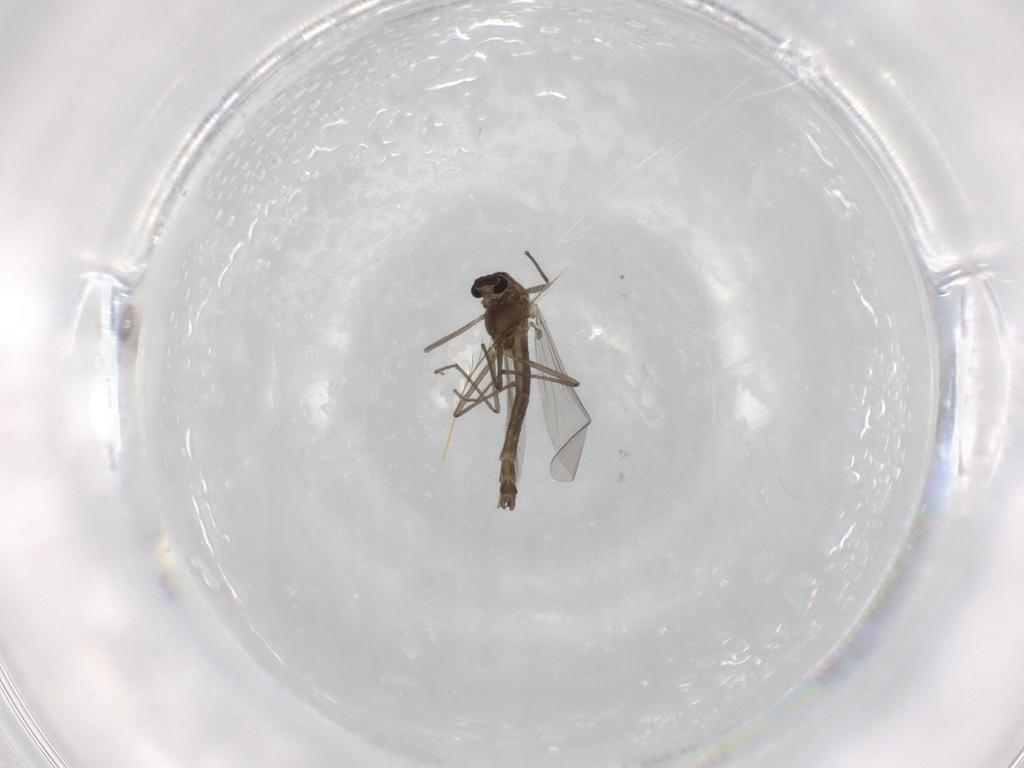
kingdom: Animalia
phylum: Arthropoda
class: Insecta
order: Diptera
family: Chironomidae
